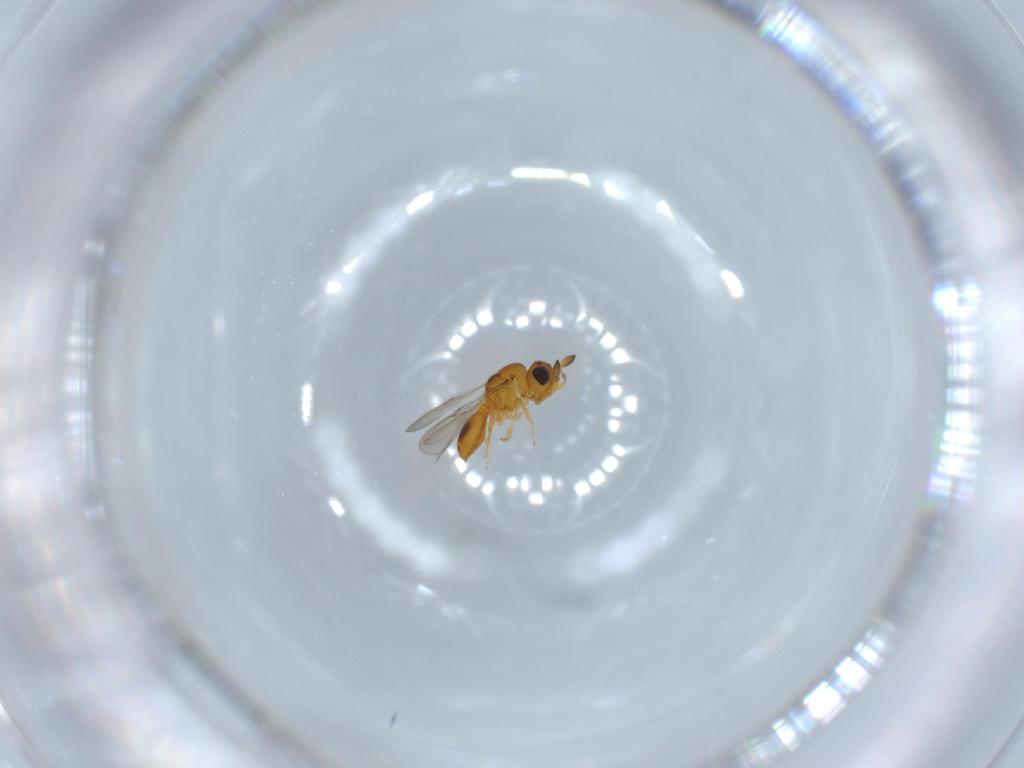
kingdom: Animalia
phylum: Arthropoda
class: Insecta
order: Hymenoptera
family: Scelionidae
